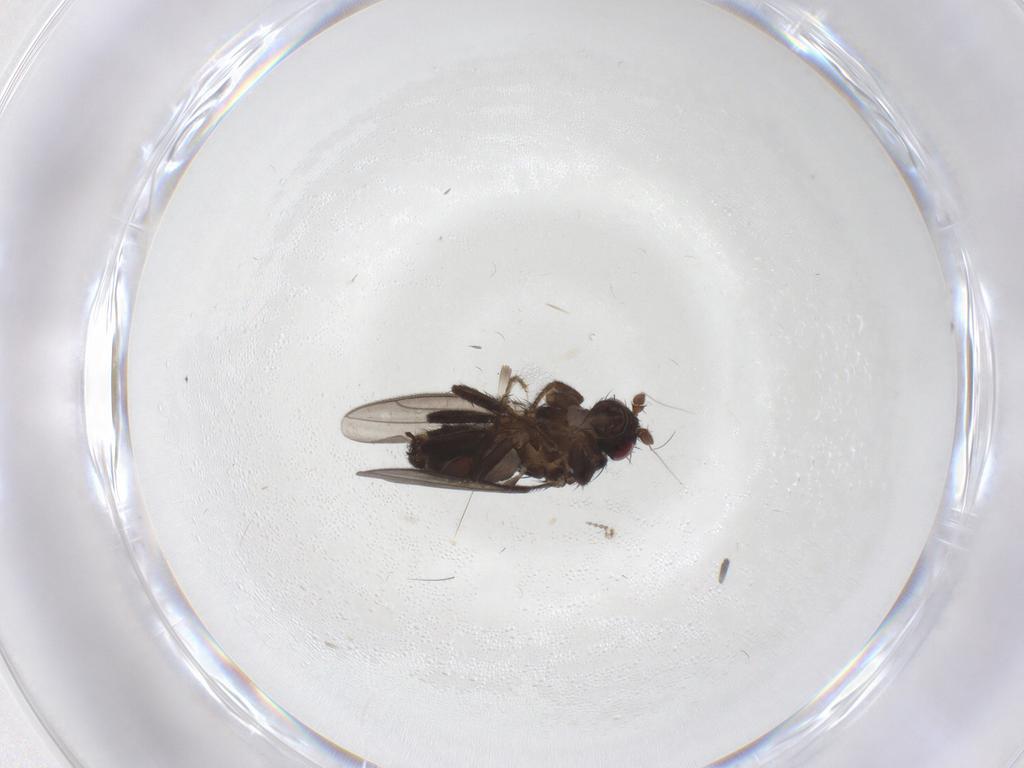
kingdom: Animalia
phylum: Arthropoda
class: Insecta
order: Diptera
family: Sphaeroceridae
